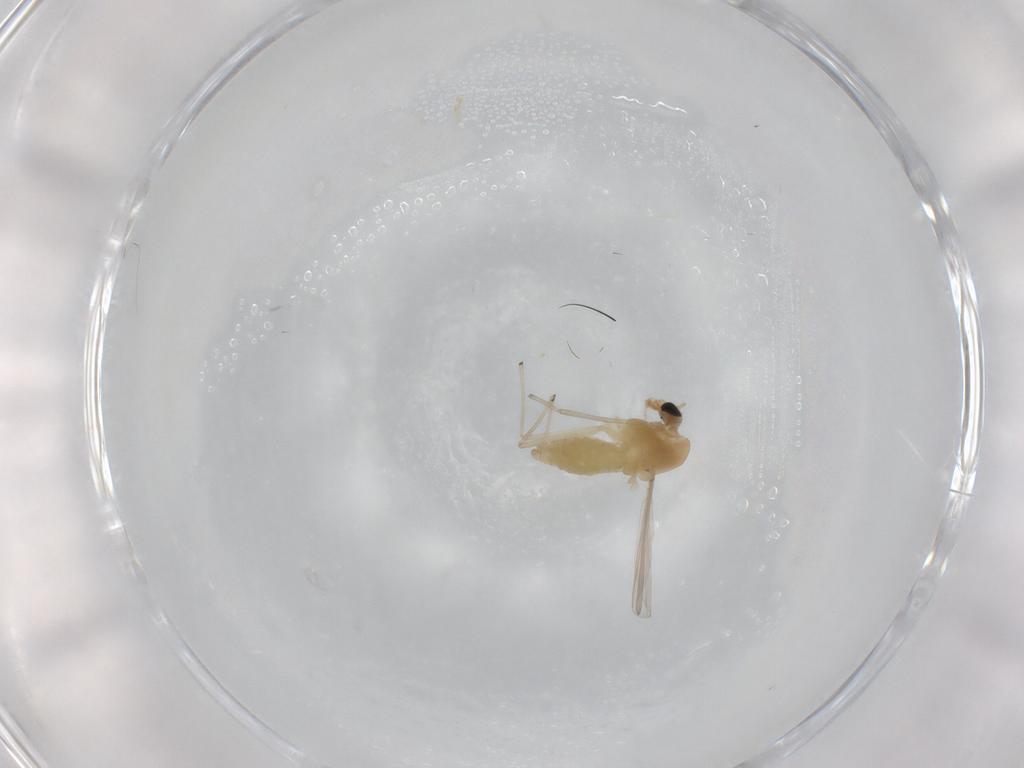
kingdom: Animalia
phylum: Arthropoda
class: Insecta
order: Diptera
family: Chironomidae
